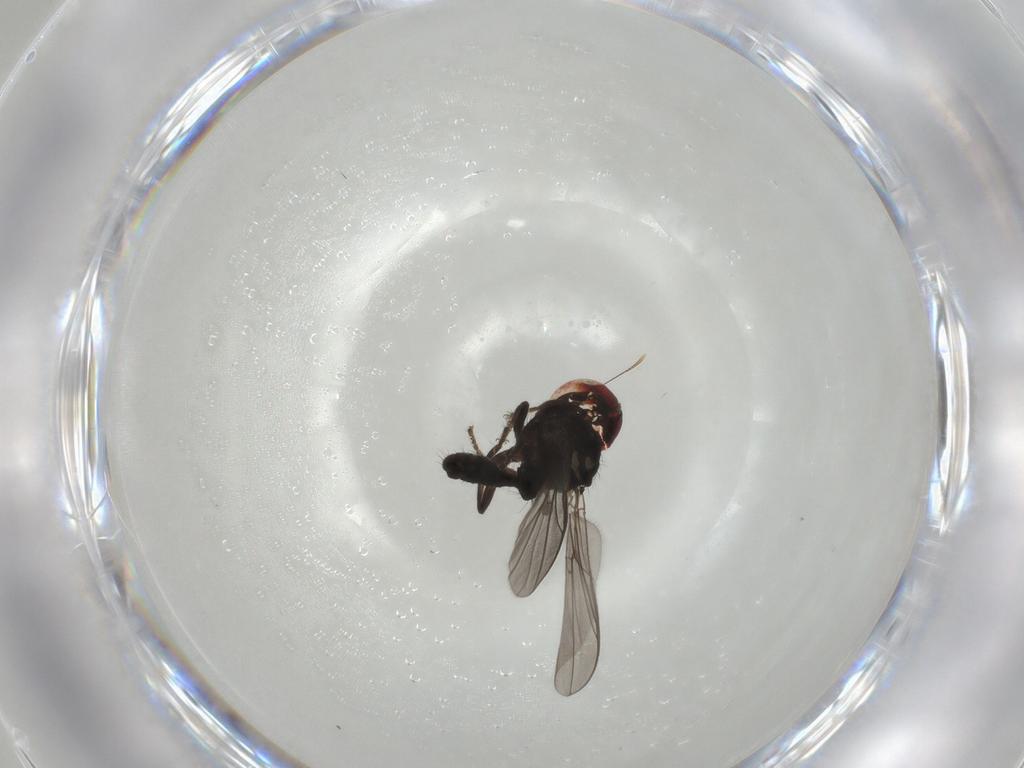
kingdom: Animalia
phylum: Arthropoda
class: Insecta
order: Diptera
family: Pipunculidae
